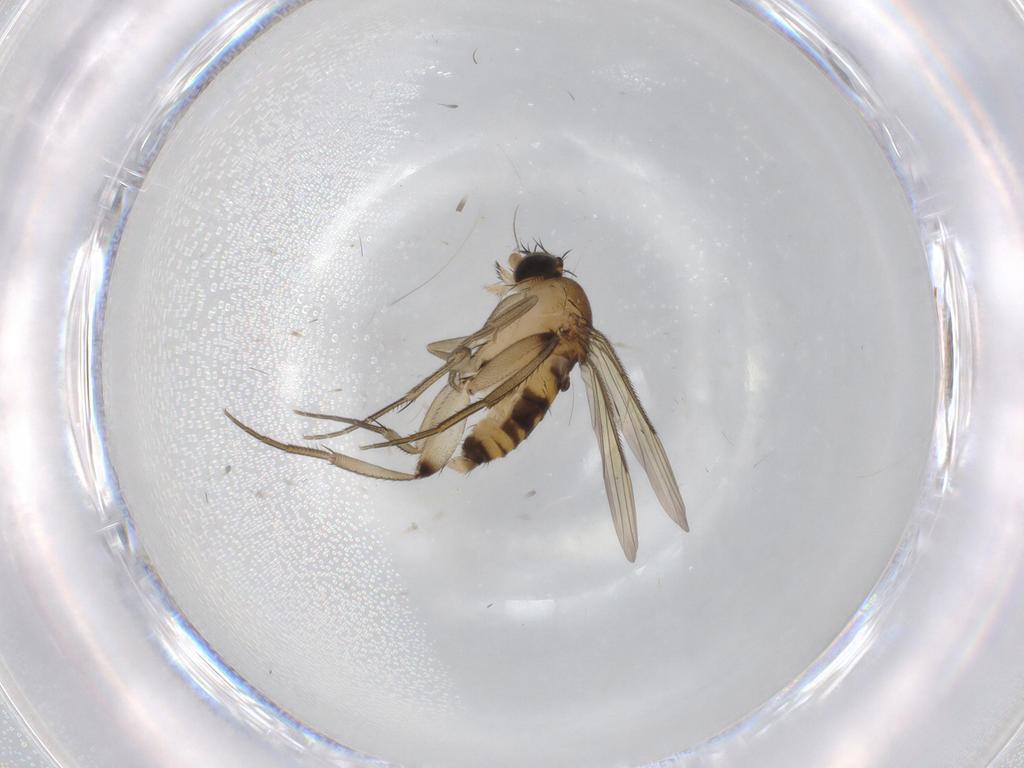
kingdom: Animalia
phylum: Arthropoda
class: Insecta
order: Diptera
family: Phoridae
